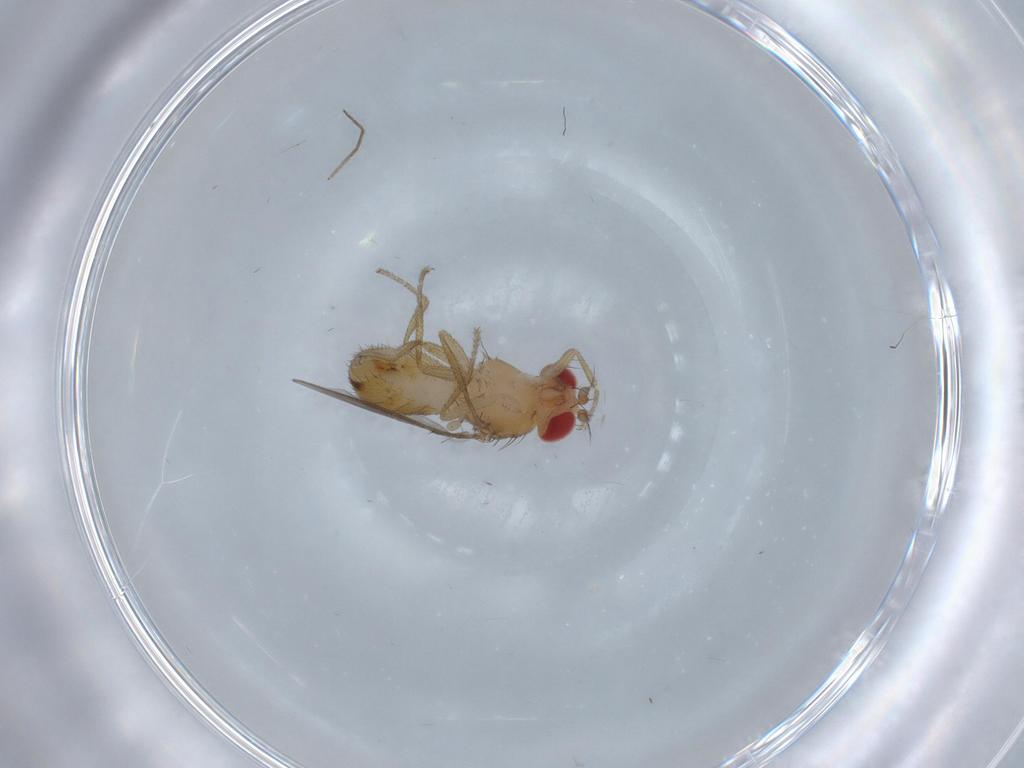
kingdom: Animalia
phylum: Arthropoda
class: Insecta
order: Diptera
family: Drosophilidae
